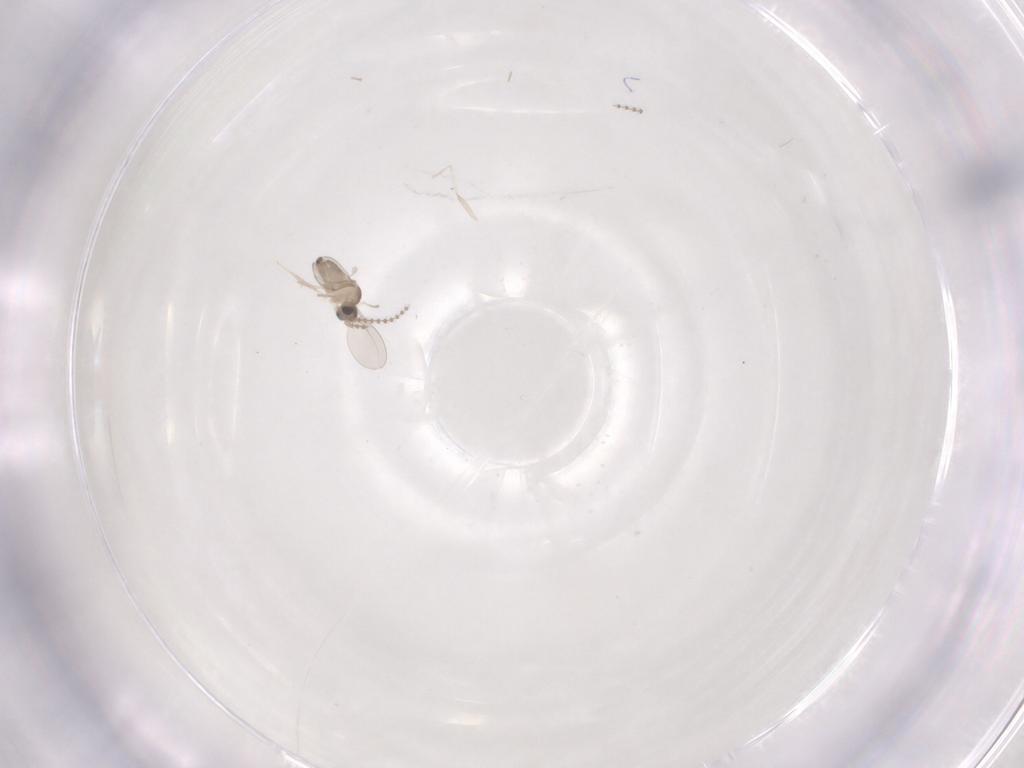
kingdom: Animalia
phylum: Arthropoda
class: Insecta
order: Diptera
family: Cecidomyiidae
